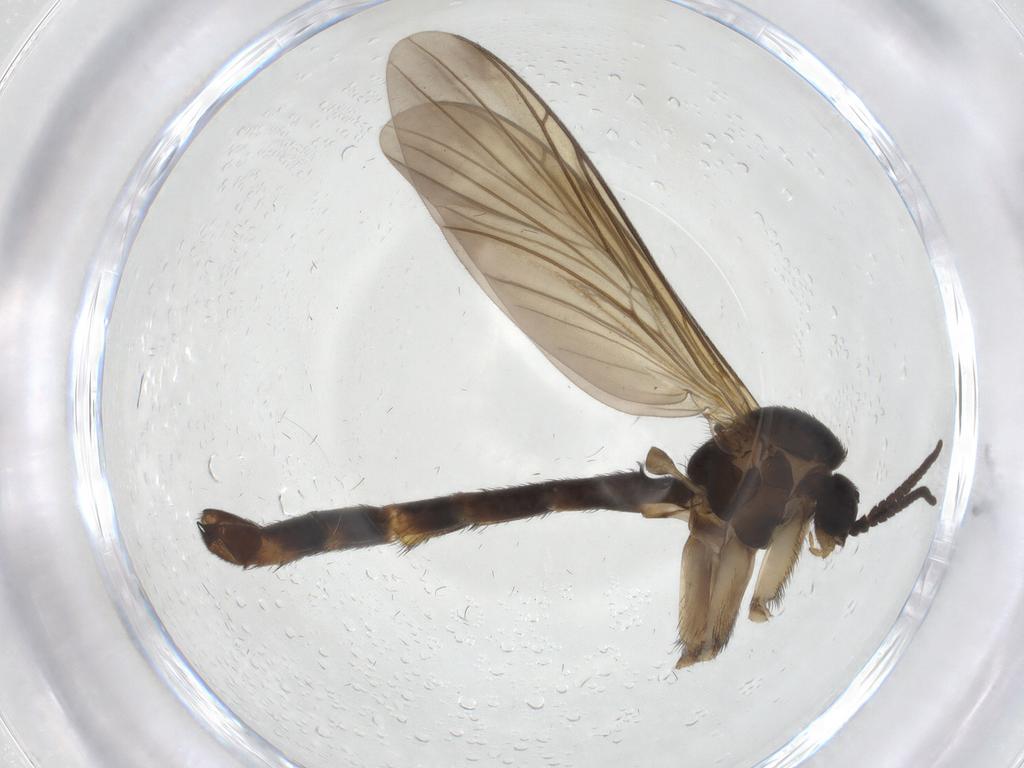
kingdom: Animalia
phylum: Arthropoda
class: Insecta
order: Diptera
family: Keroplatidae
